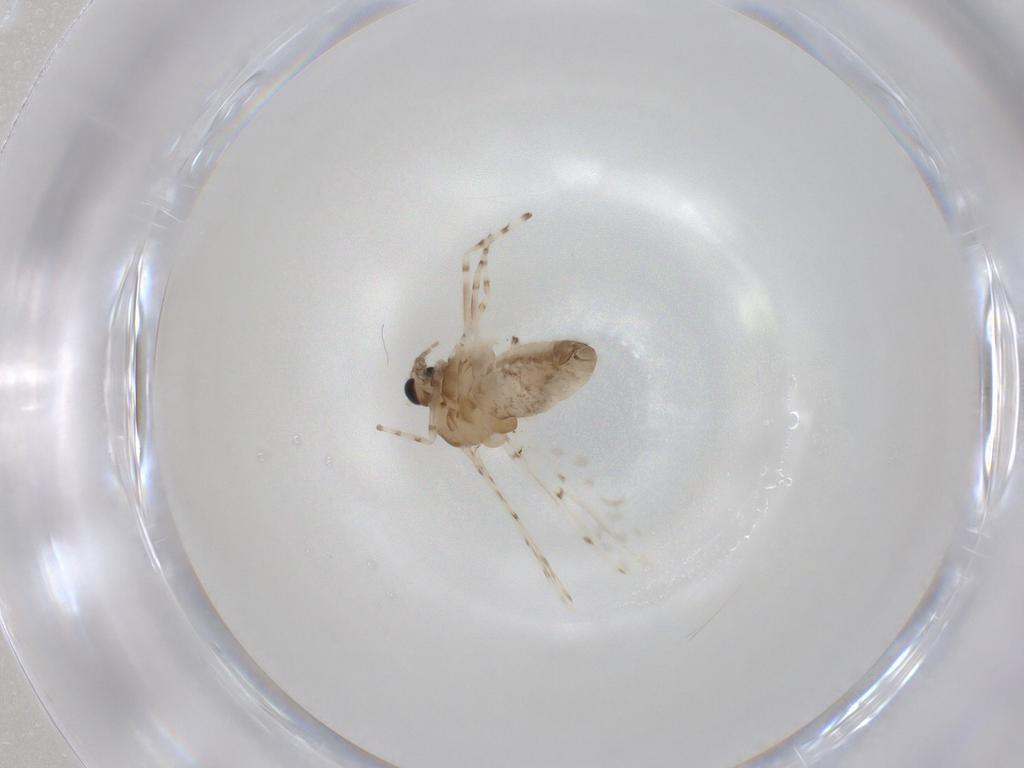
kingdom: Animalia
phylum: Arthropoda
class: Insecta
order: Diptera
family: Chironomidae
